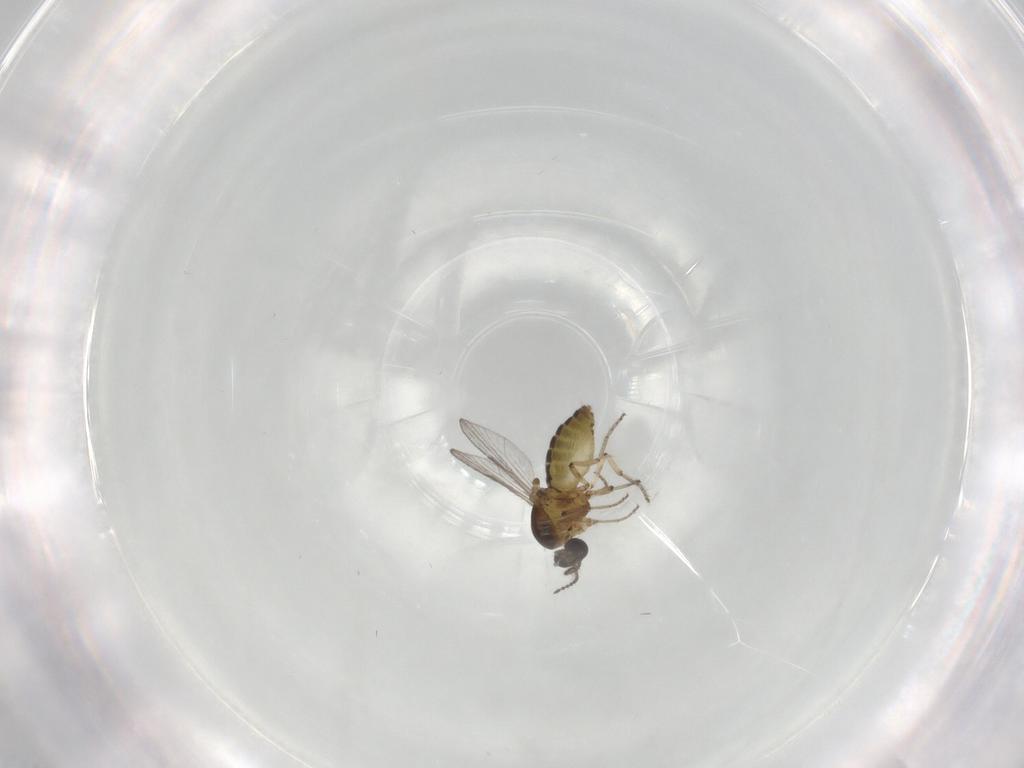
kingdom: Animalia
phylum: Arthropoda
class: Insecta
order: Diptera
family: Ceratopogonidae
